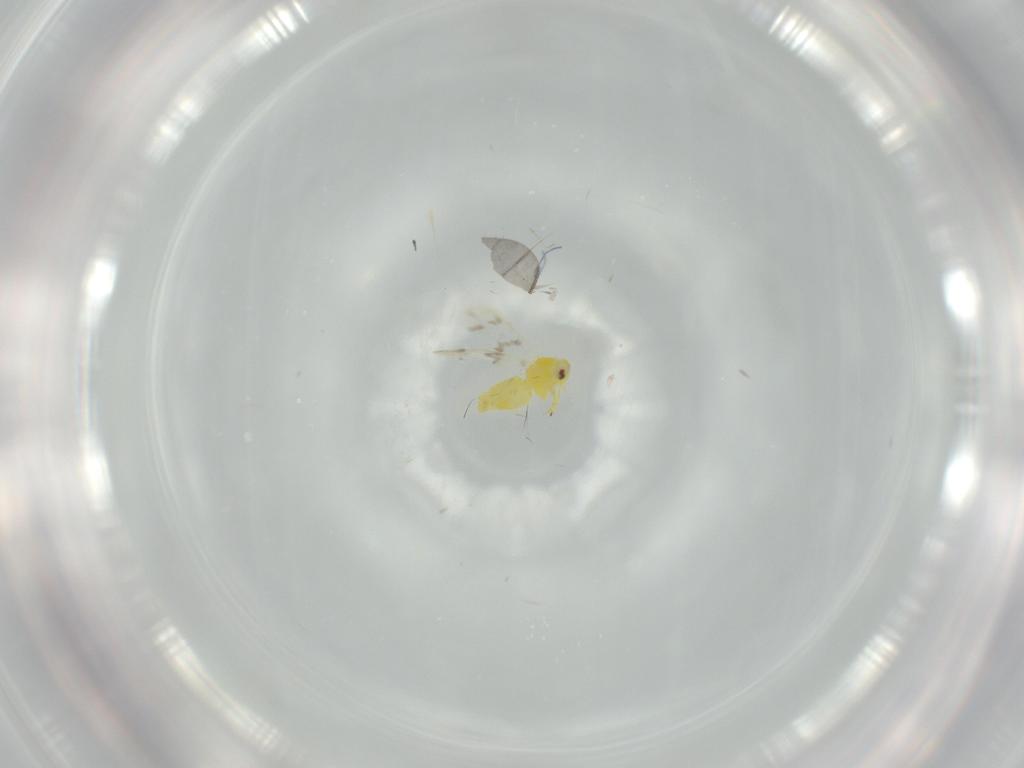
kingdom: Animalia
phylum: Arthropoda
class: Insecta
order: Hemiptera
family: Aleyrodidae
